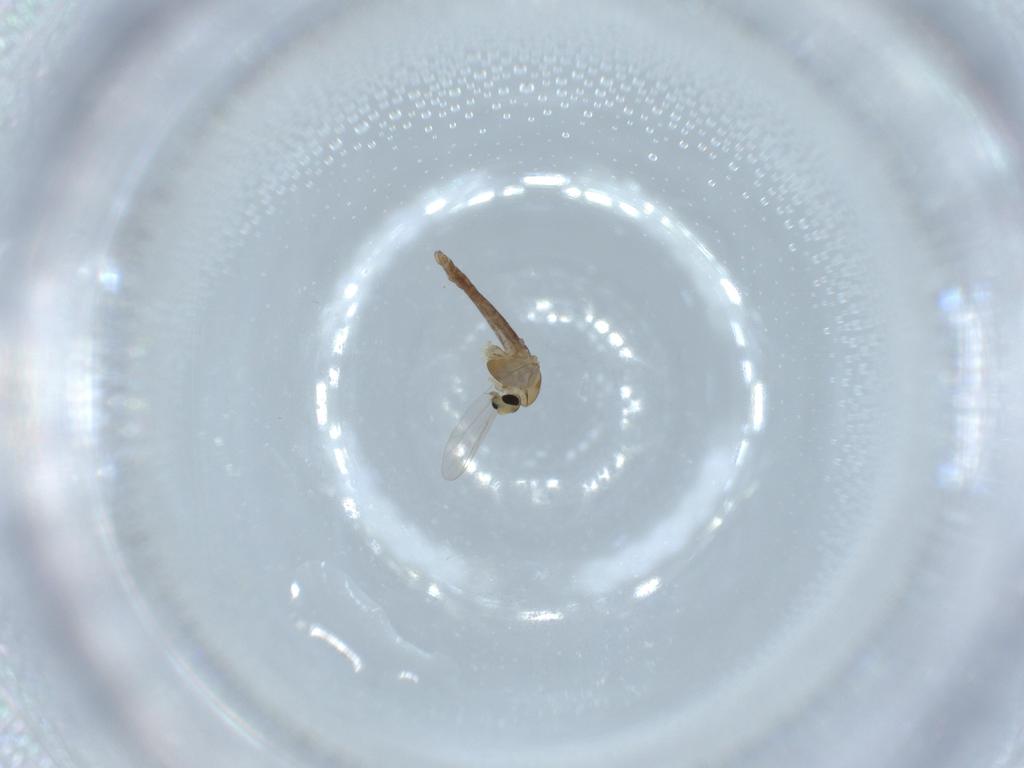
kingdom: Animalia
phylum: Arthropoda
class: Insecta
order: Diptera
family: Chironomidae
